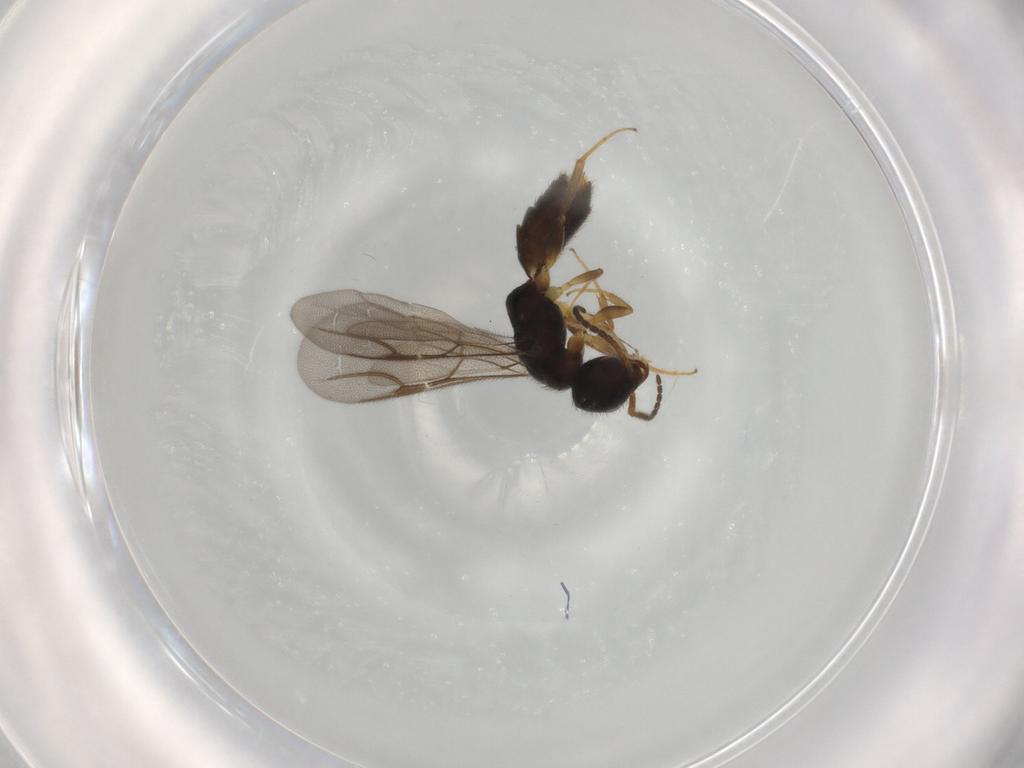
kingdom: Animalia
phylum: Arthropoda
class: Insecta
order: Hymenoptera
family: Bethylidae
